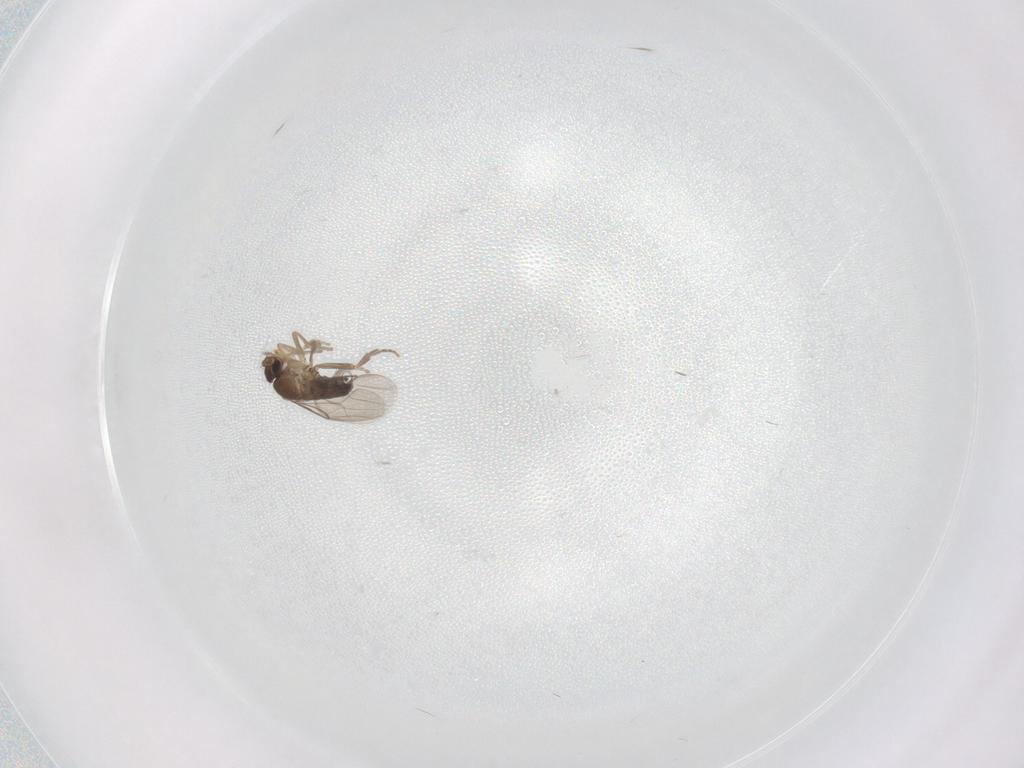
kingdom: Animalia
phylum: Arthropoda
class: Insecta
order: Diptera
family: Phoridae
